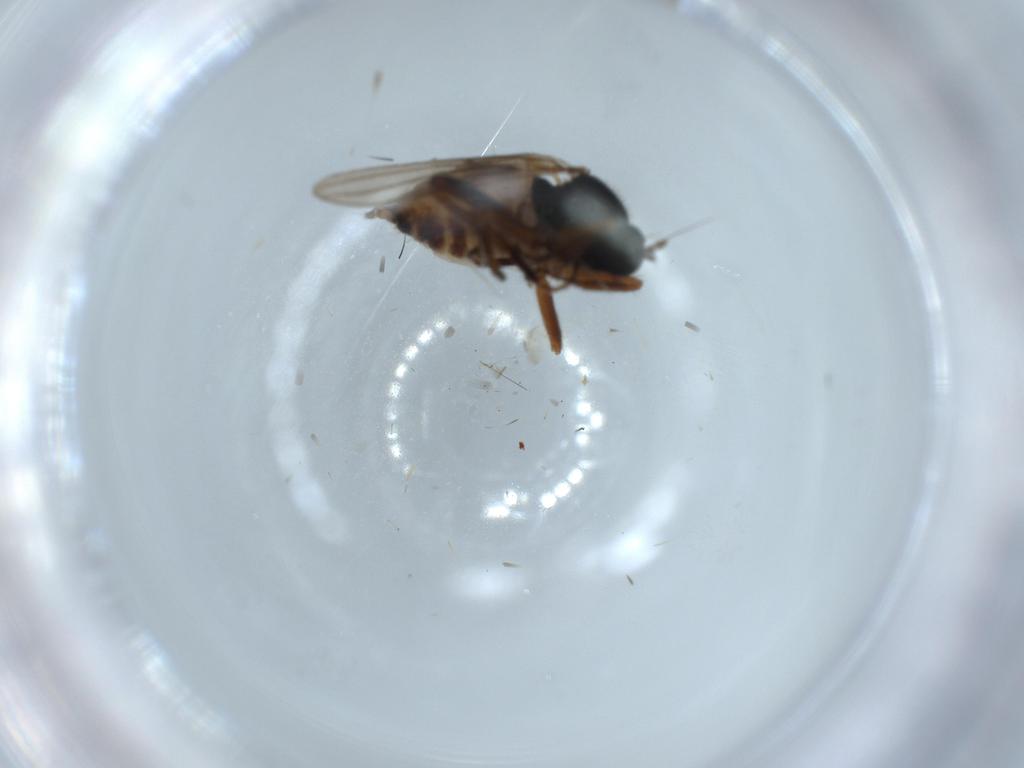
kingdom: Animalia
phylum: Arthropoda
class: Insecta
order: Diptera
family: Hybotidae
